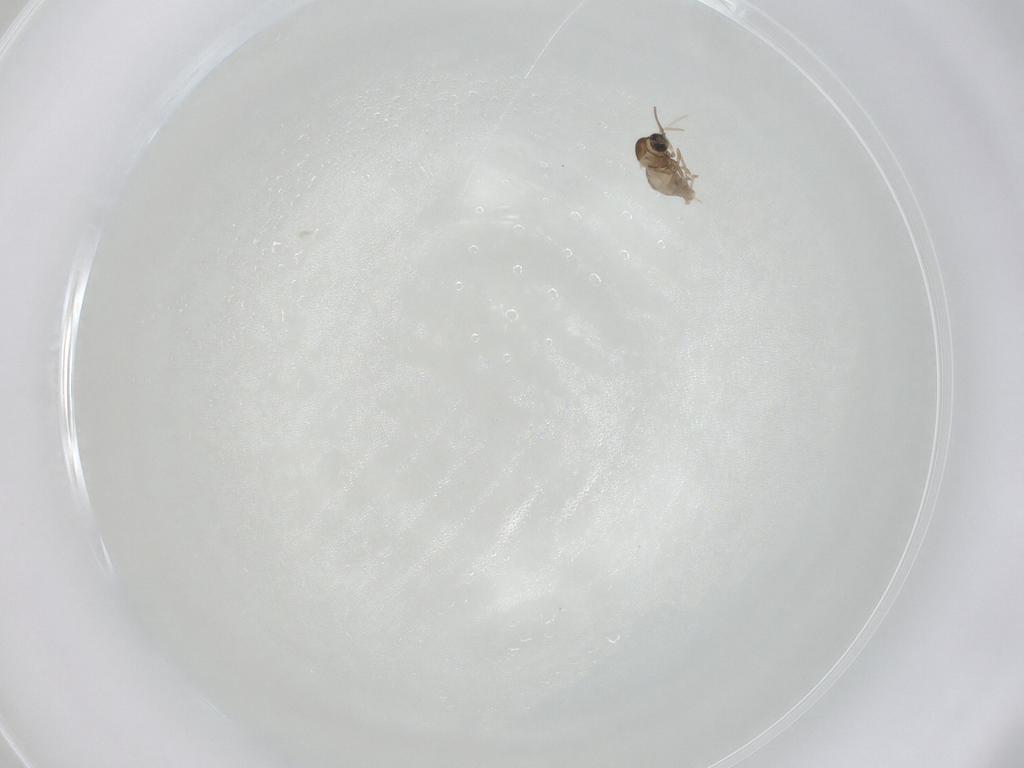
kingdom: Animalia
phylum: Arthropoda
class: Insecta
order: Diptera
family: Cecidomyiidae
